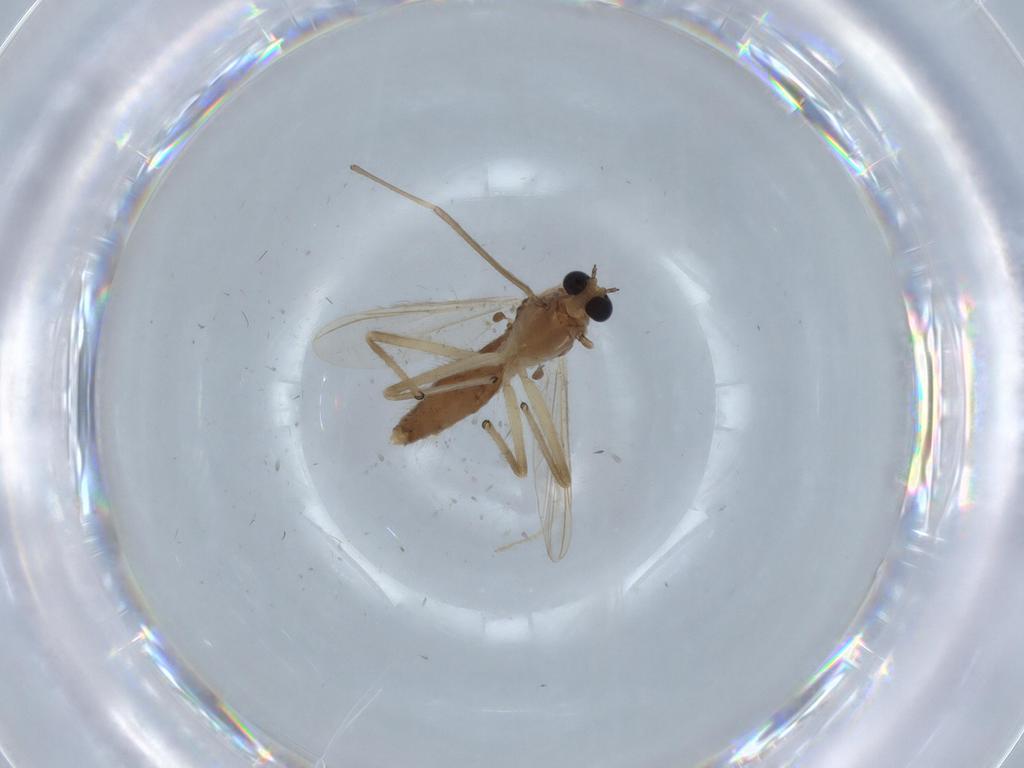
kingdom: Animalia
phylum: Arthropoda
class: Insecta
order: Diptera
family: Chironomidae
